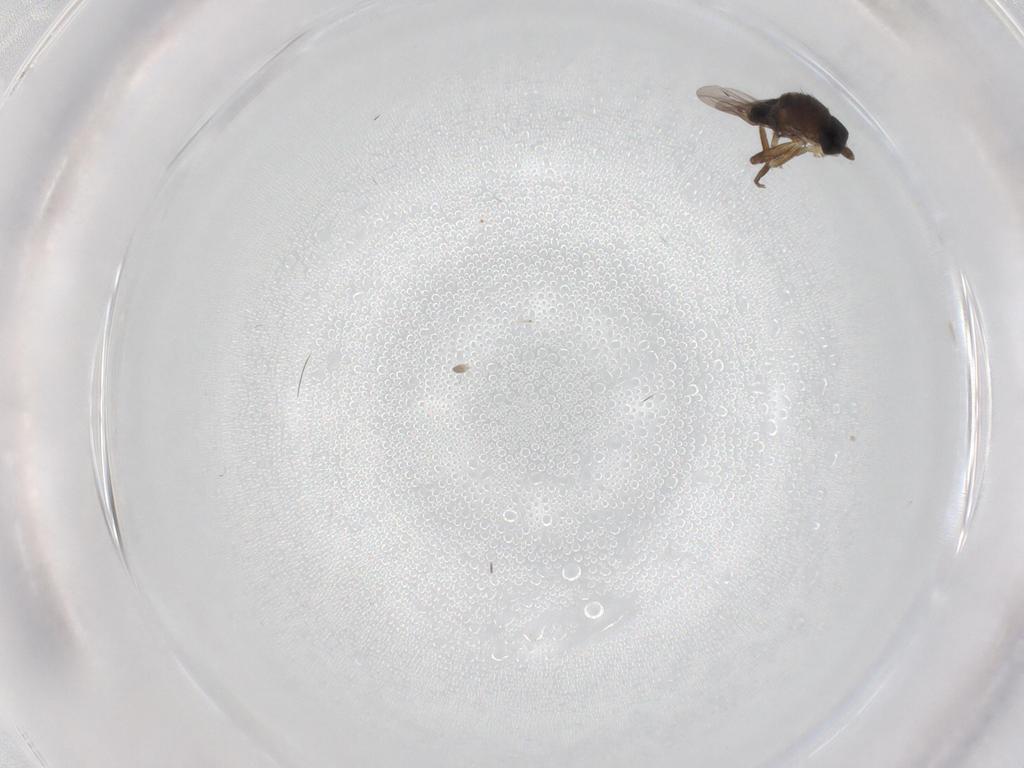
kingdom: Animalia
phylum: Arthropoda
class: Insecta
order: Diptera
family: Phoridae
